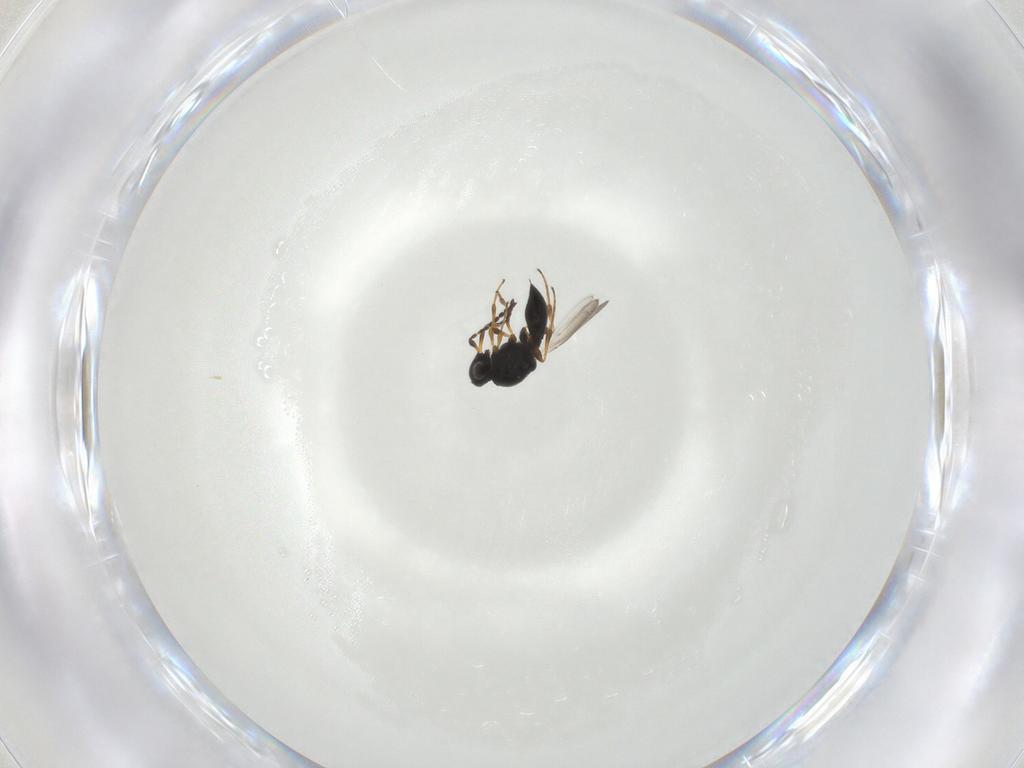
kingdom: Animalia
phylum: Arthropoda
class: Insecta
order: Hymenoptera
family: Platygastridae
